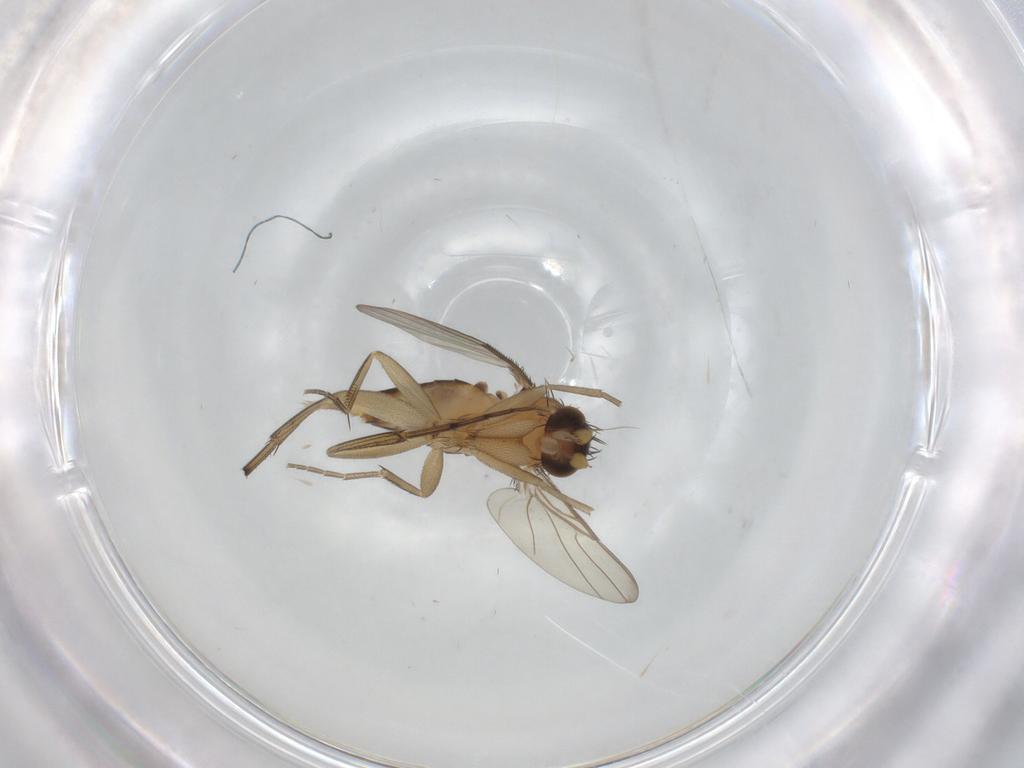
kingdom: Animalia
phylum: Arthropoda
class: Insecta
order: Diptera
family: Phoridae
